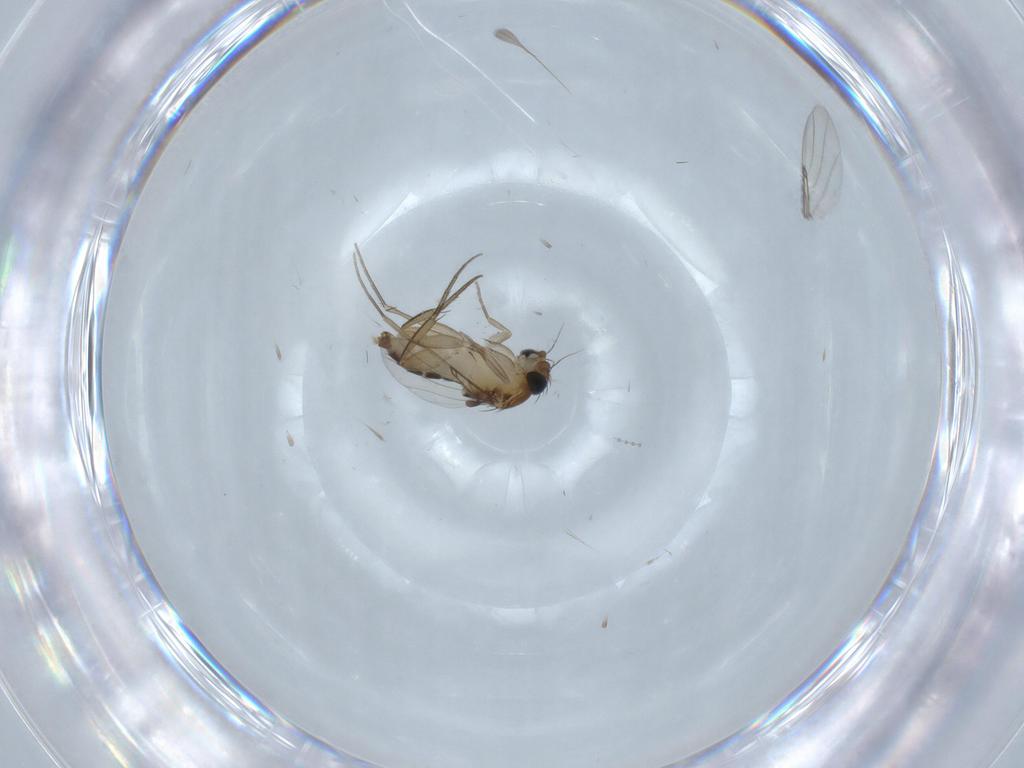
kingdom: Animalia
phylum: Arthropoda
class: Insecta
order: Diptera
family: Phoridae
